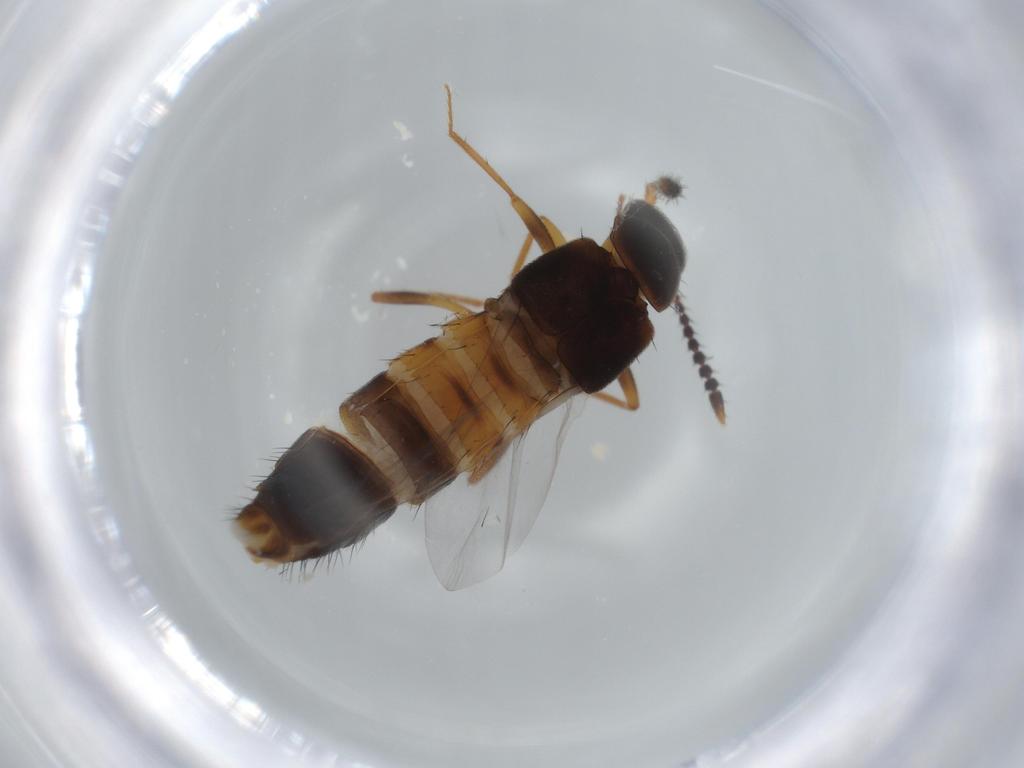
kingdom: Animalia
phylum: Arthropoda
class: Insecta
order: Coleoptera
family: Staphylinidae
